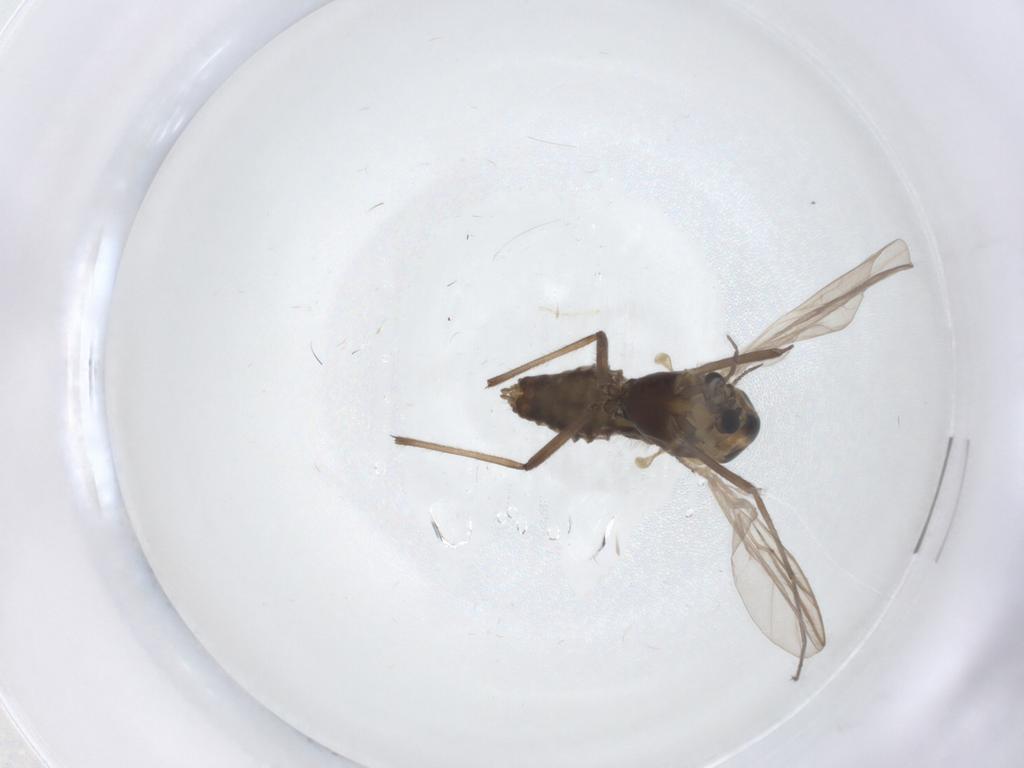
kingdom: Animalia
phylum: Arthropoda
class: Insecta
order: Diptera
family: Chironomidae
